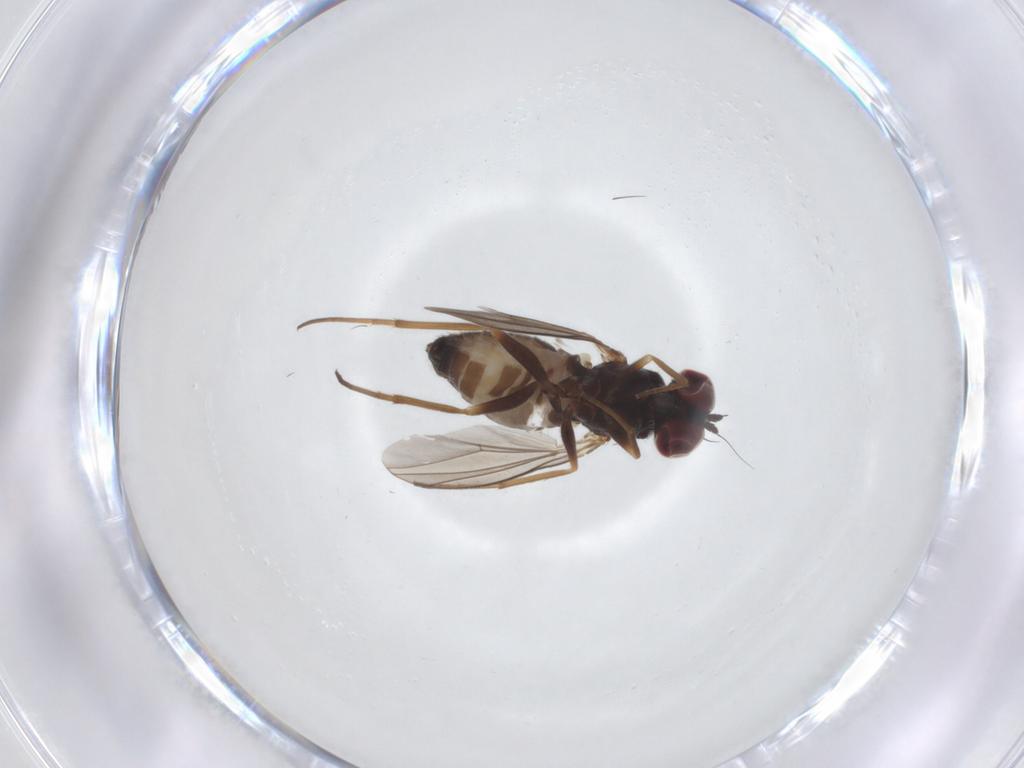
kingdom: Animalia
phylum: Arthropoda
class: Insecta
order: Diptera
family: Dolichopodidae
